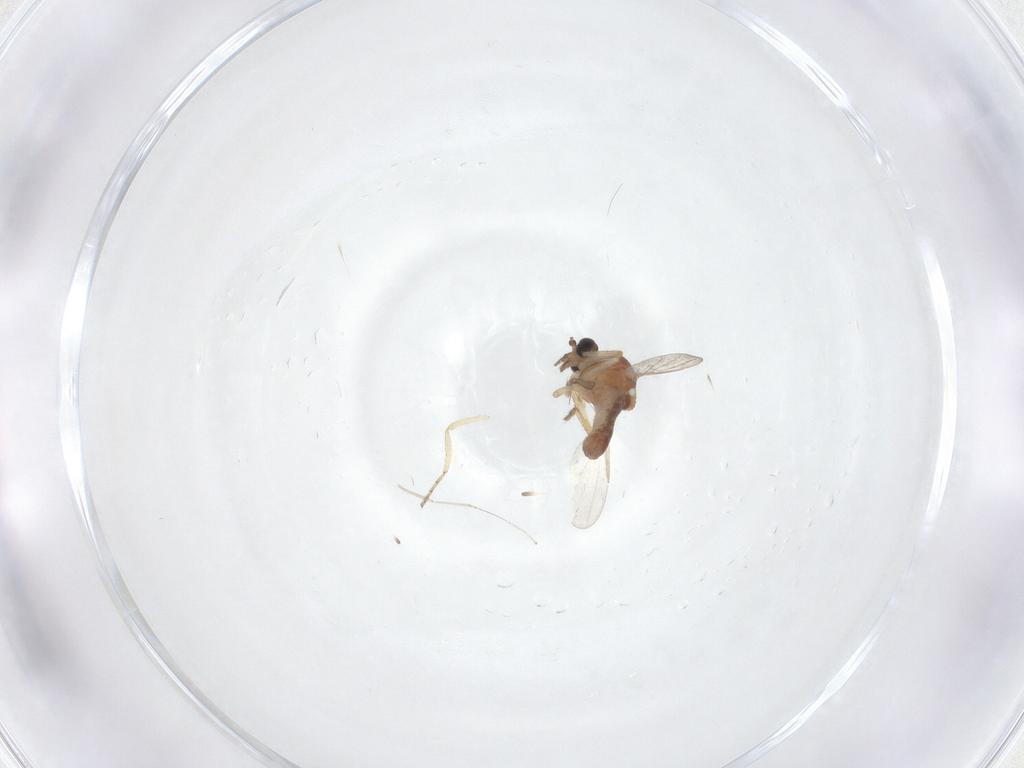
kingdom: Animalia
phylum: Arthropoda
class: Insecta
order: Diptera
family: Ceratopogonidae
